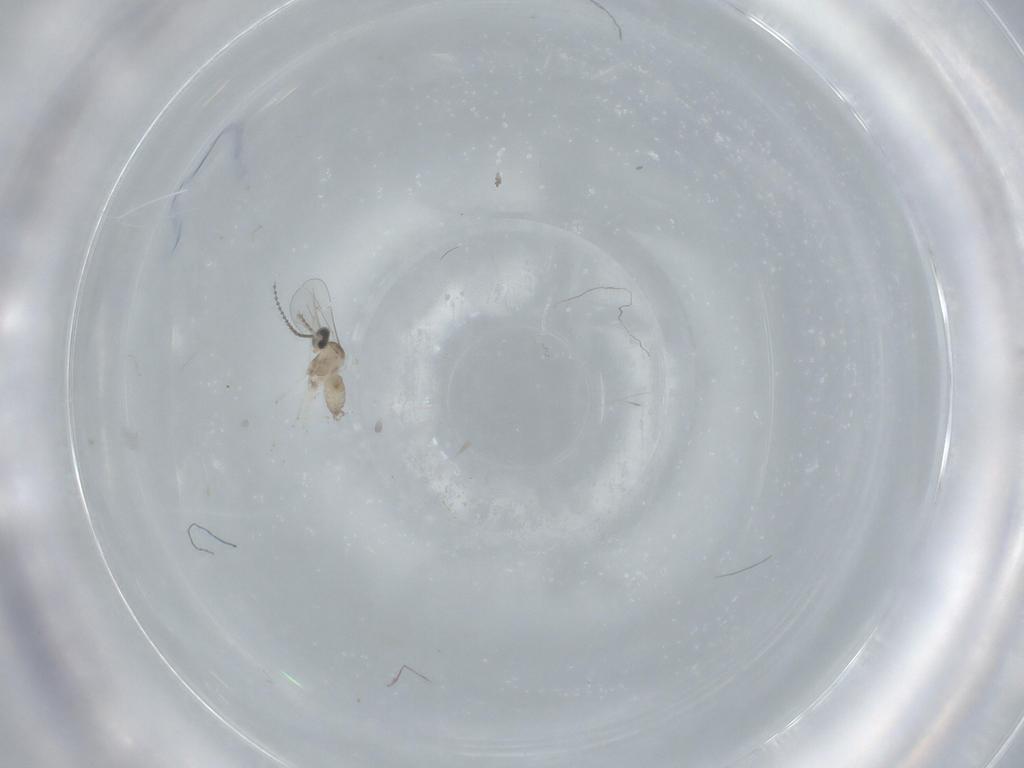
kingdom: Animalia
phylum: Arthropoda
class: Insecta
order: Diptera
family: Cecidomyiidae
